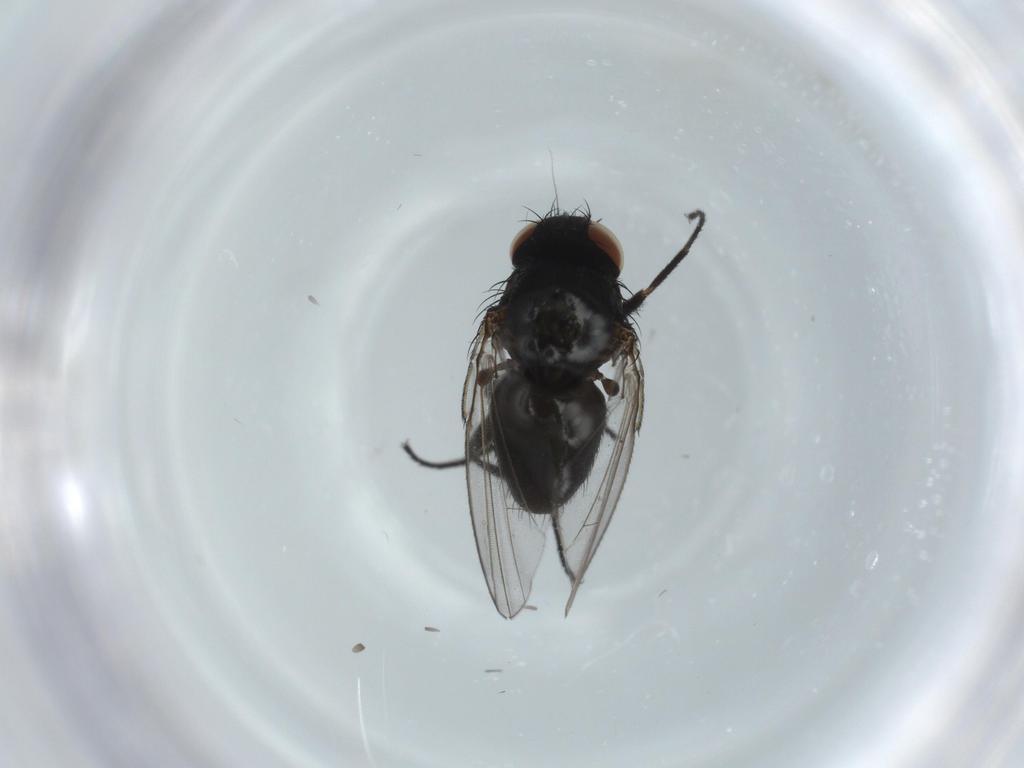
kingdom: Animalia
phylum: Arthropoda
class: Insecta
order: Diptera
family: Milichiidae
